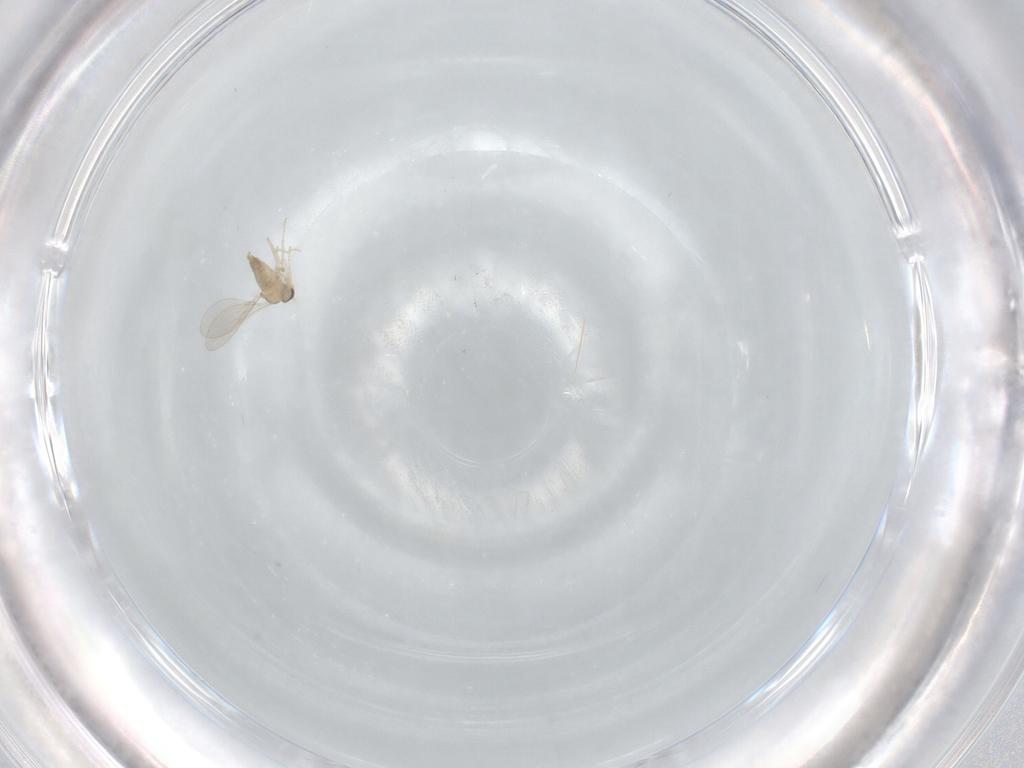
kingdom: Animalia
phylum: Arthropoda
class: Insecta
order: Diptera
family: Cecidomyiidae
